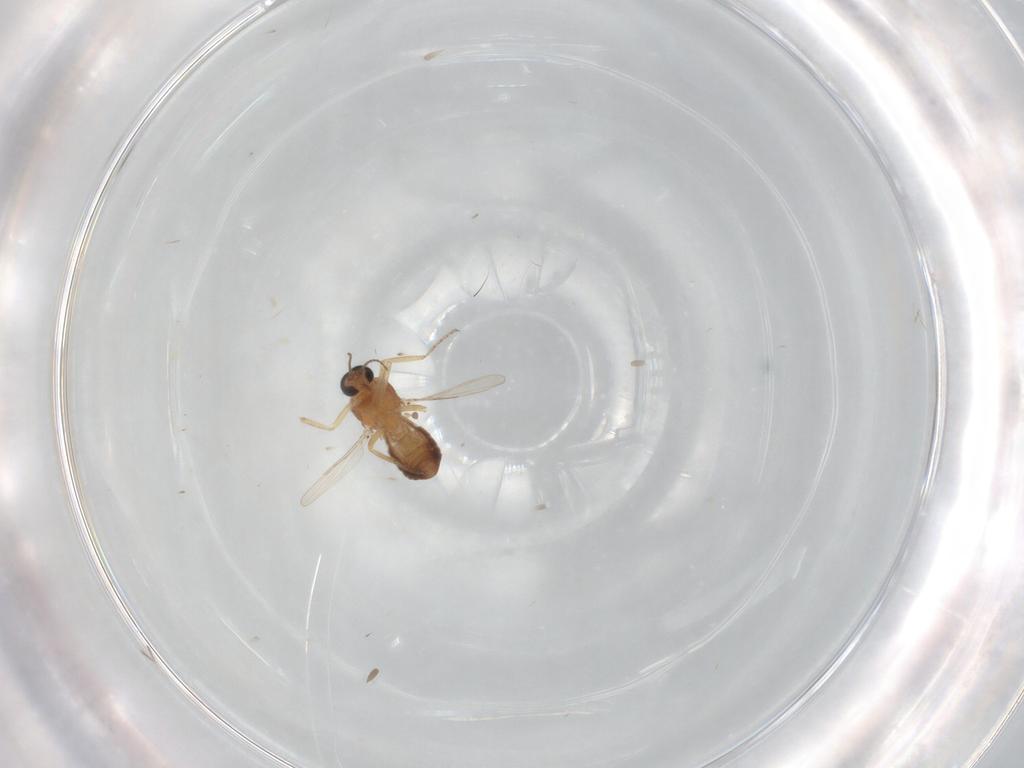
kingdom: Animalia
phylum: Arthropoda
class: Insecta
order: Diptera
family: Ceratopogonidae
